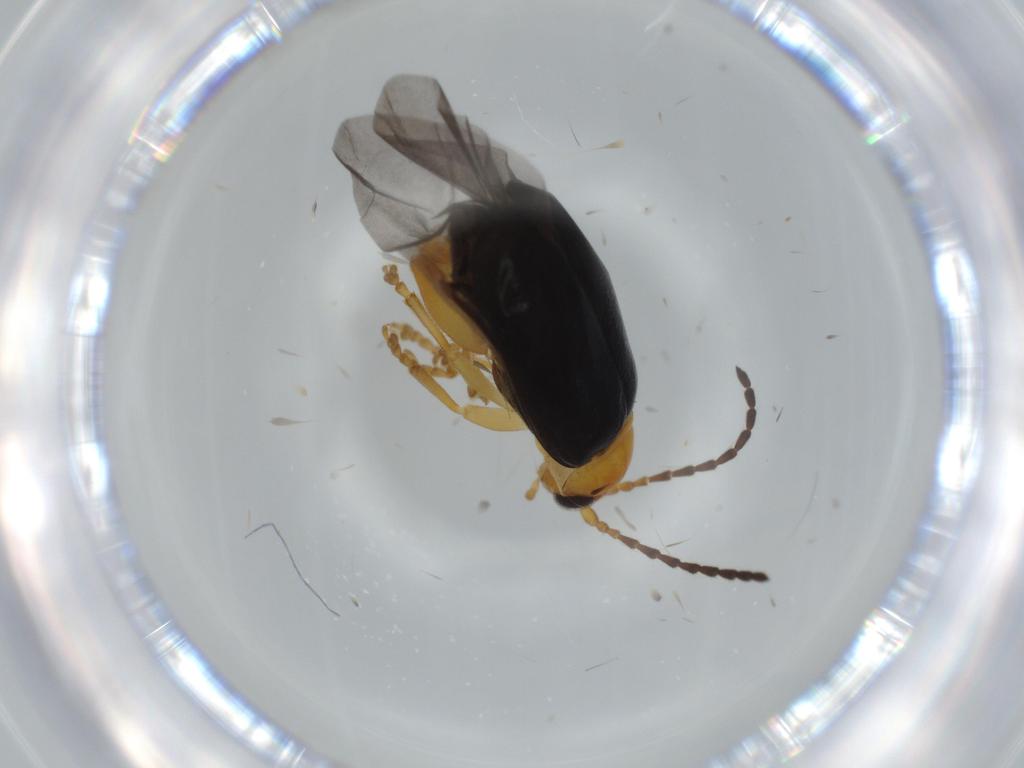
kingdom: Animalia
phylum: Arthropoda
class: Insecta
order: Coleoptera
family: Chrysomelidae
